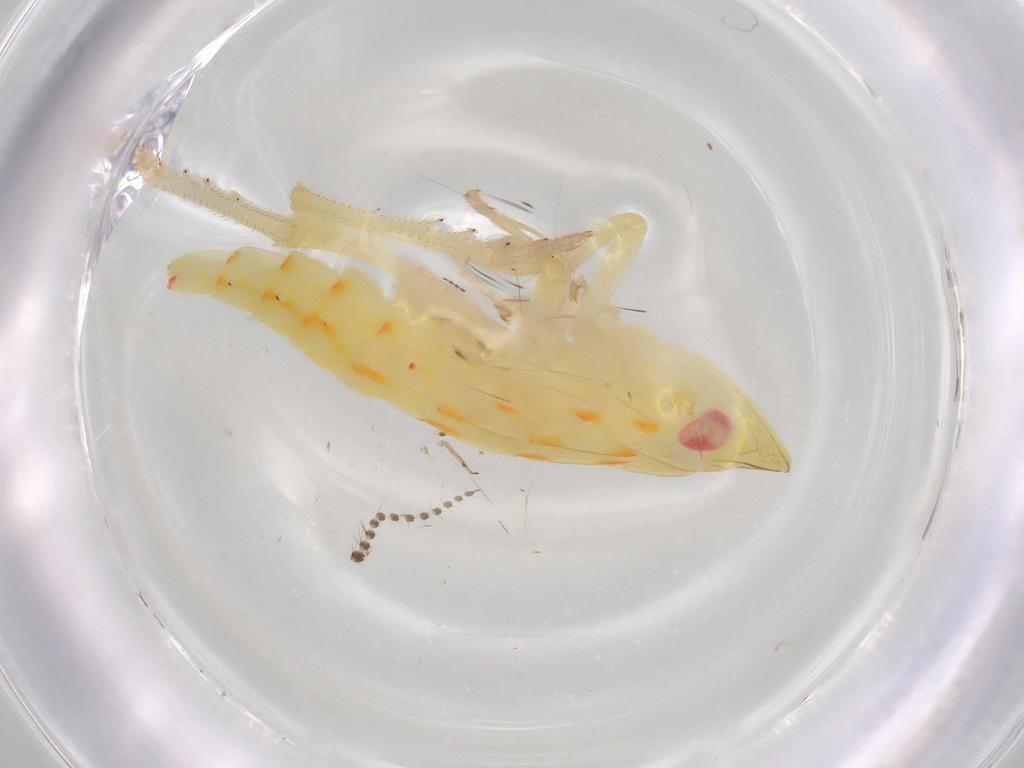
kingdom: Animalia
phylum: Arthropoda
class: Insecta
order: Hemiptera
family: Tropiduchidae
